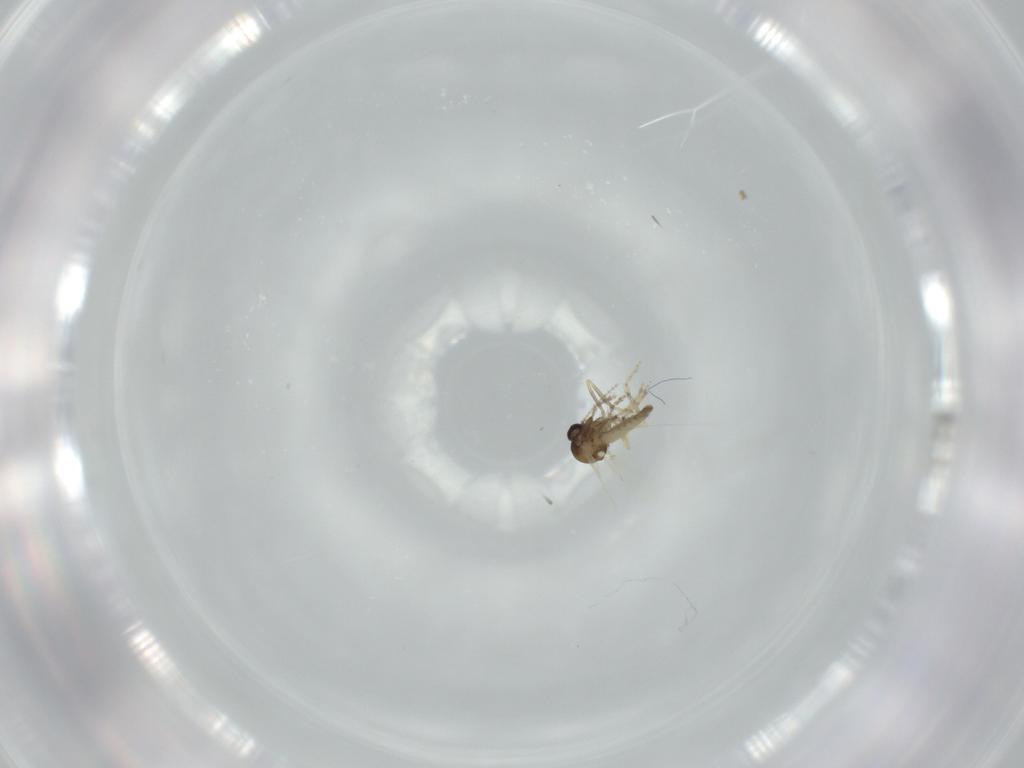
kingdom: Animalia
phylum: Arthropoda
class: Insecta
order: Diptera
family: Ceratopogonidae
